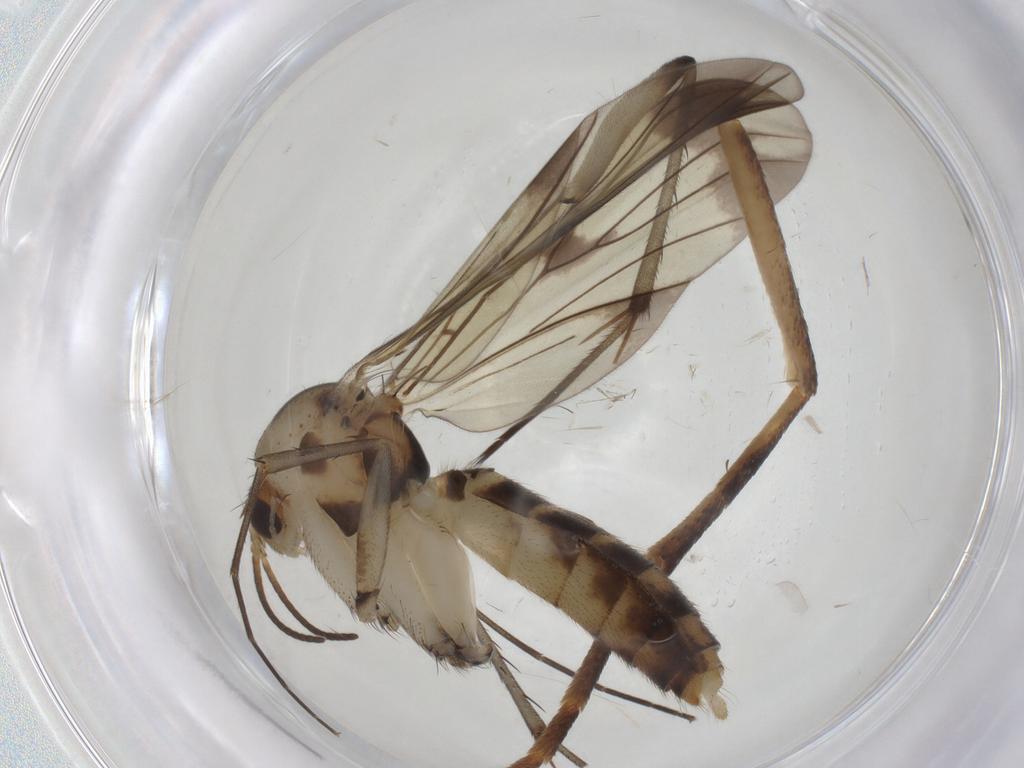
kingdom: Animalia
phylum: Arthropoda
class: Insecta
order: Diptera
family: Mycetophilidae
